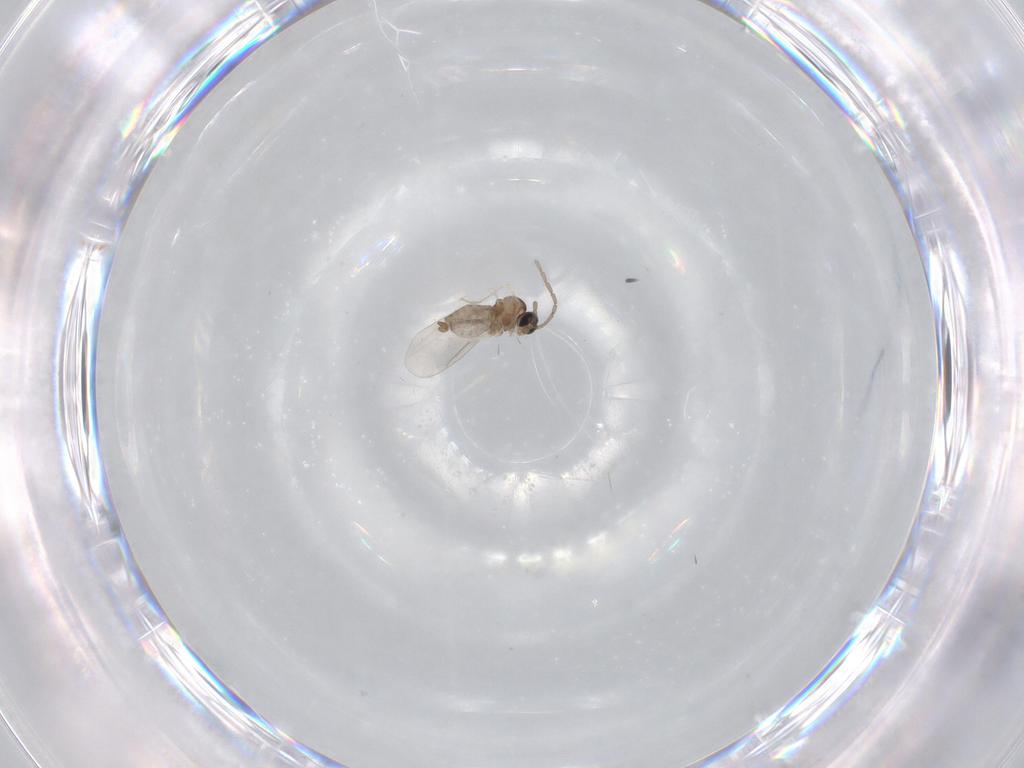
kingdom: Animalia
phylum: Arthropoda
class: Insecta
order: Diptera
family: Cecidomyiidae
